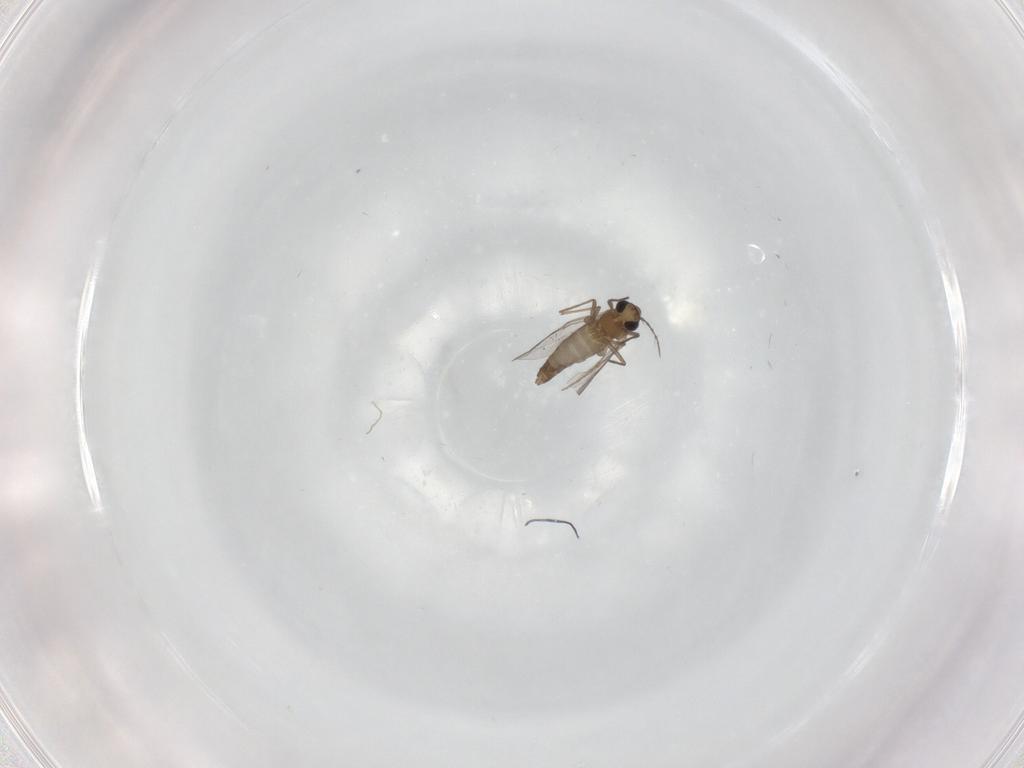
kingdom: Animalia
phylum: Arthropoda
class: Insecta
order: Diptera
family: Chironomidae
